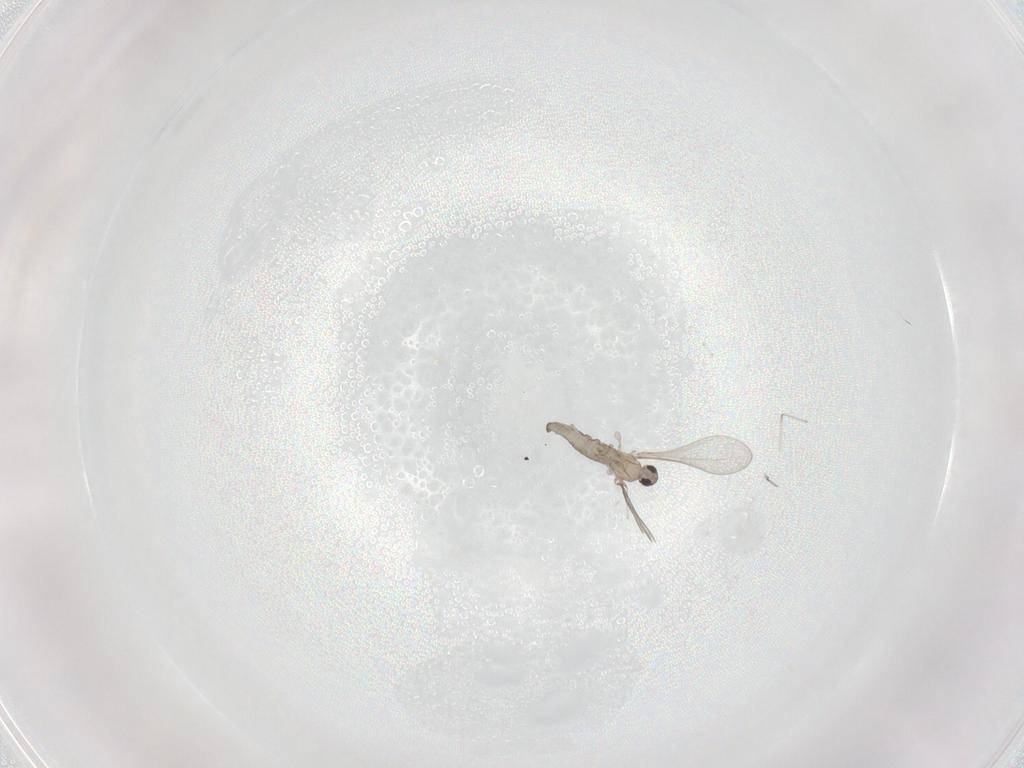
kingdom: Animalia
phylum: Arthropoda
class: Insecta
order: Diptera
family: Cecidomyiidae
